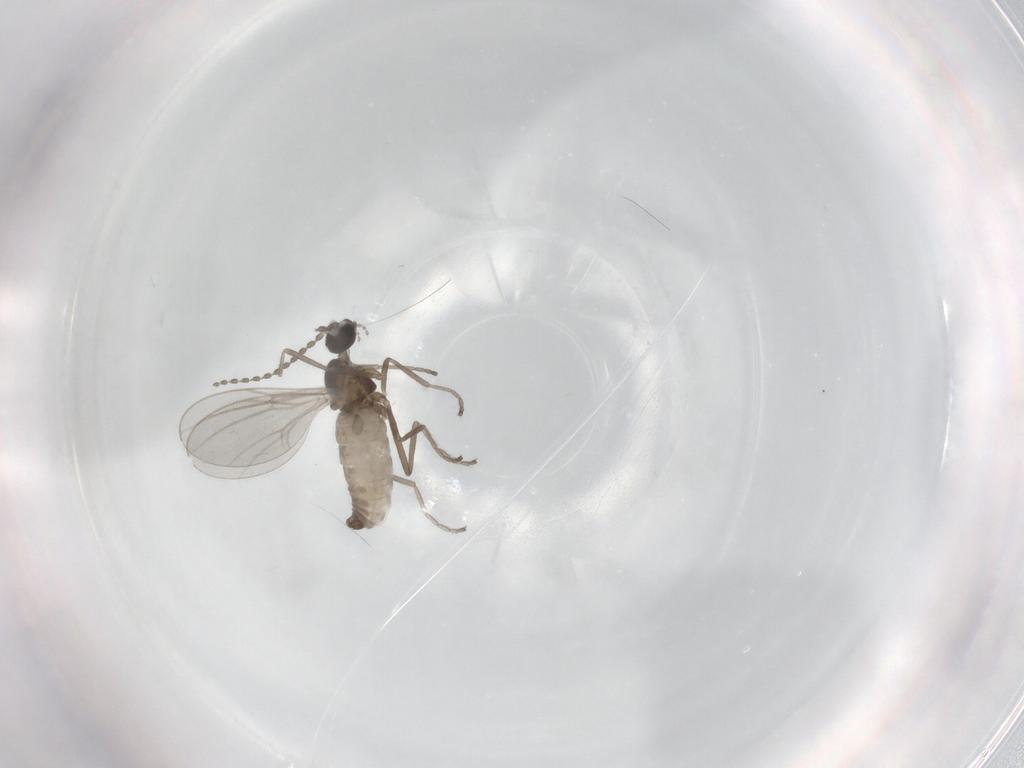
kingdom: Animalia
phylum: Arthropoda
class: Insecta
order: Diptera
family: Cecidomyiidae
